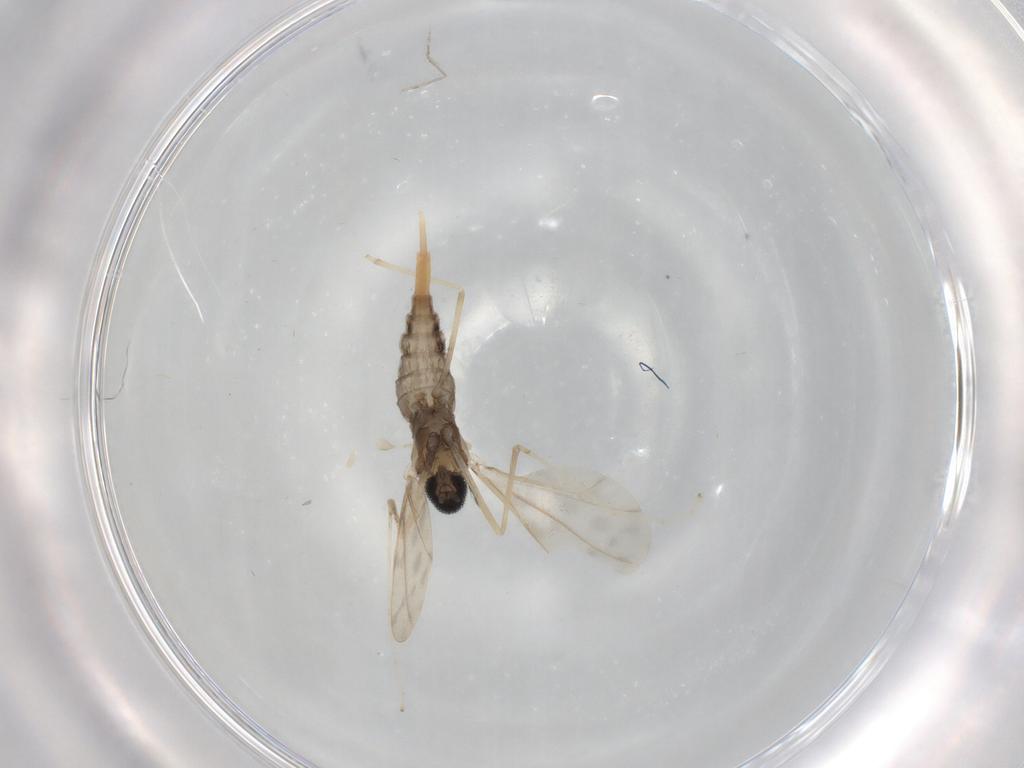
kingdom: Animalia
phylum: Arthropoda
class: Insecta
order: Diptera
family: Cecidomyiidae
